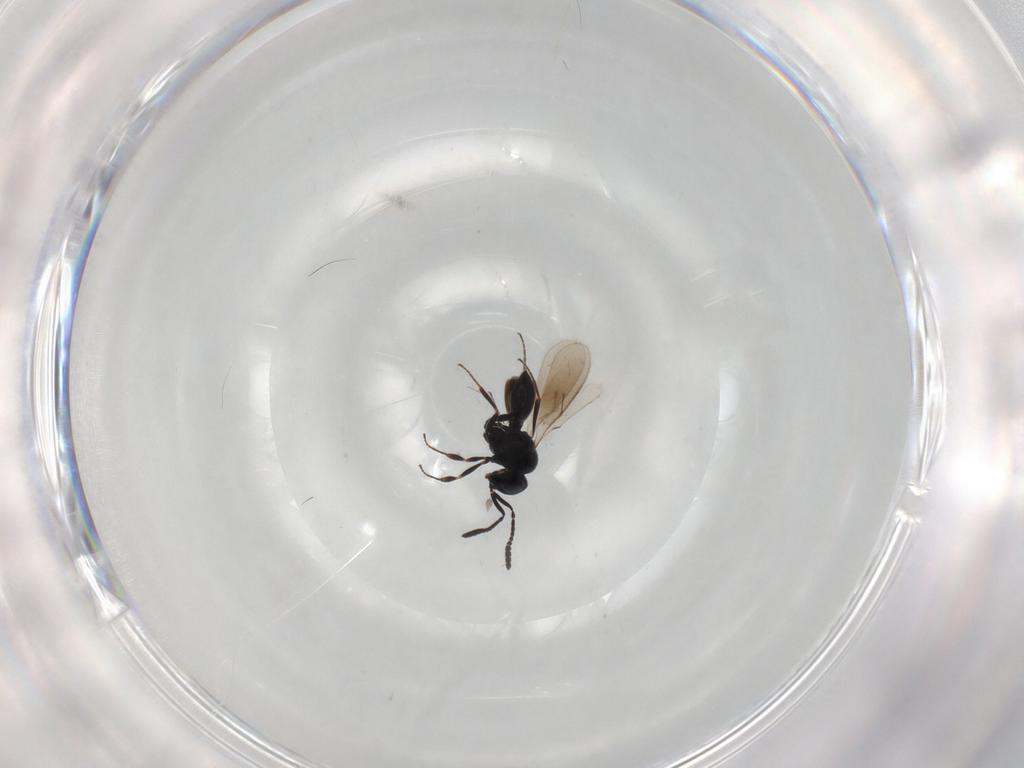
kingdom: Animalia
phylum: Arthropoda
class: Insecta
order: Hymenoptera
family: Scelionidae
